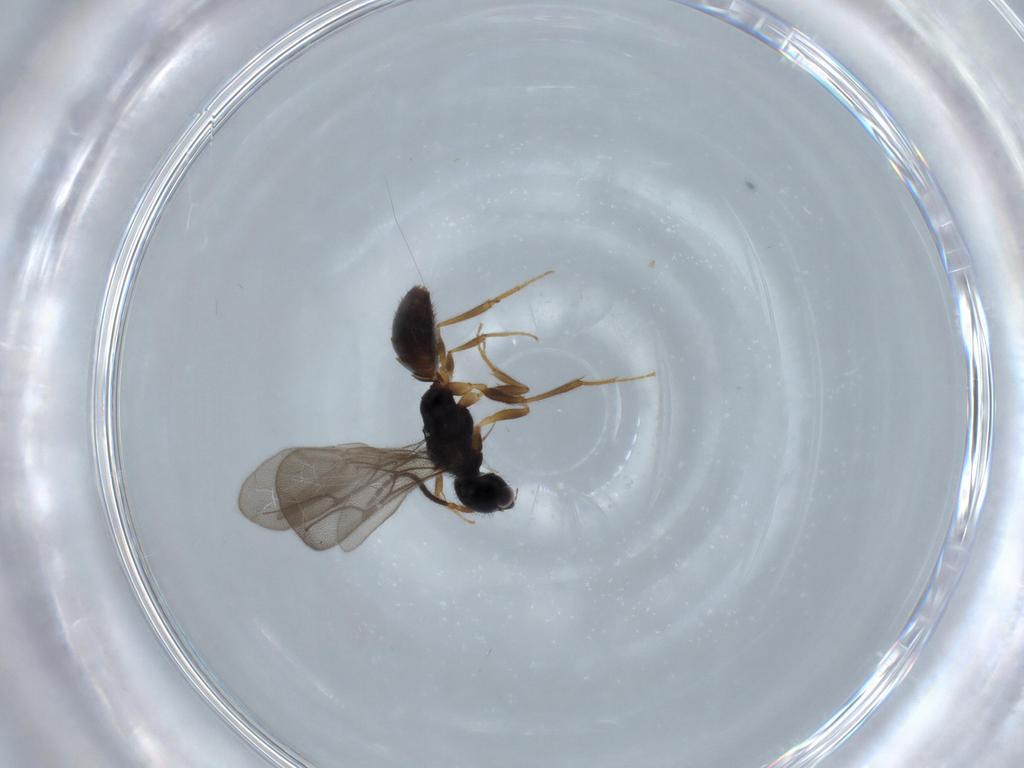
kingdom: Animalia
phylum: Arthropoda
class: Insecta
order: Hymenoptera
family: Bethylidae
